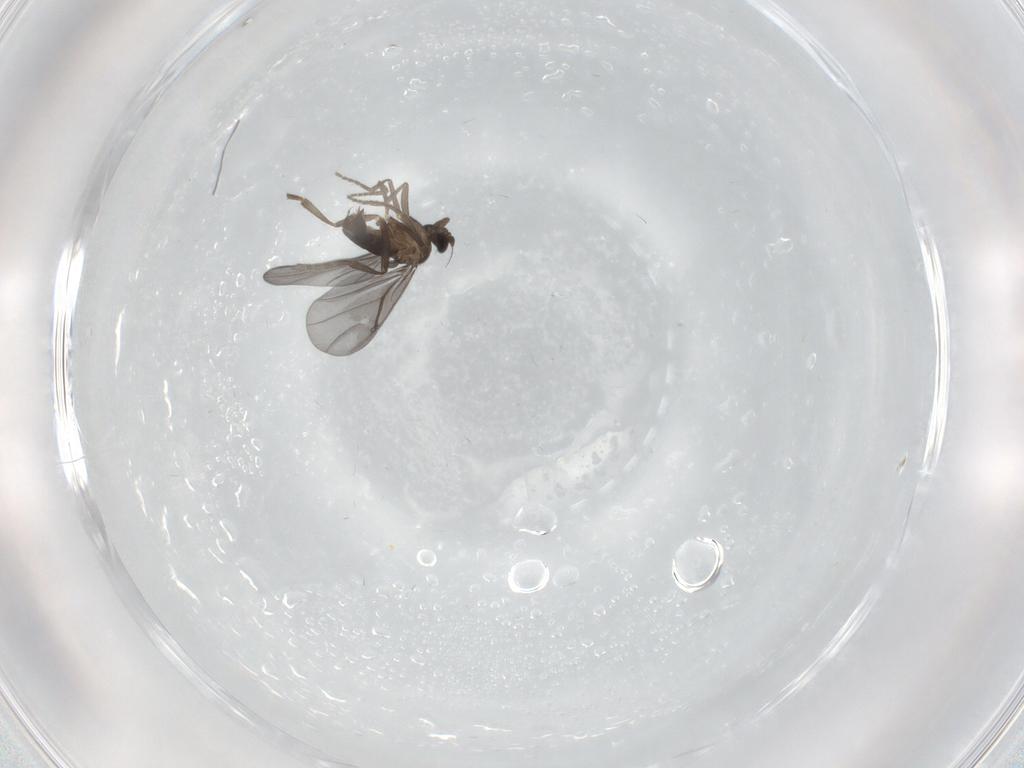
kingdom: Animalia
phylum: Arthropoda
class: Insecta
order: Diptera
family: Phoridae
